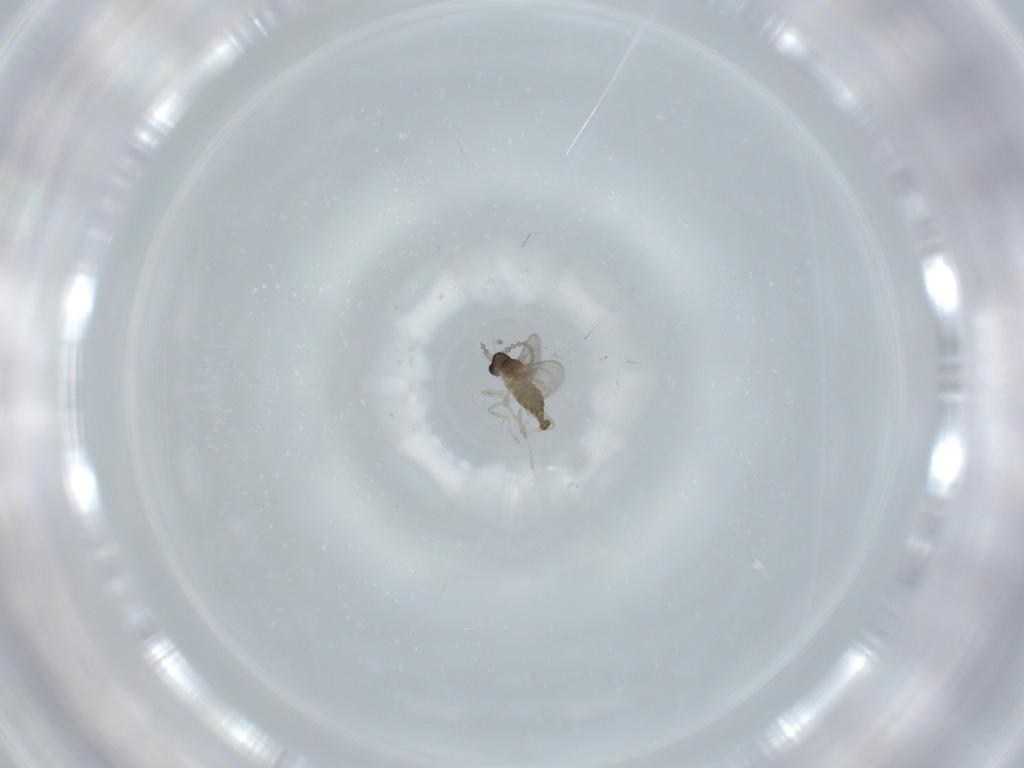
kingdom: Animalia
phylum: Arthropoda
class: Insecta
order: Diptera
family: Cecidomyiidae
